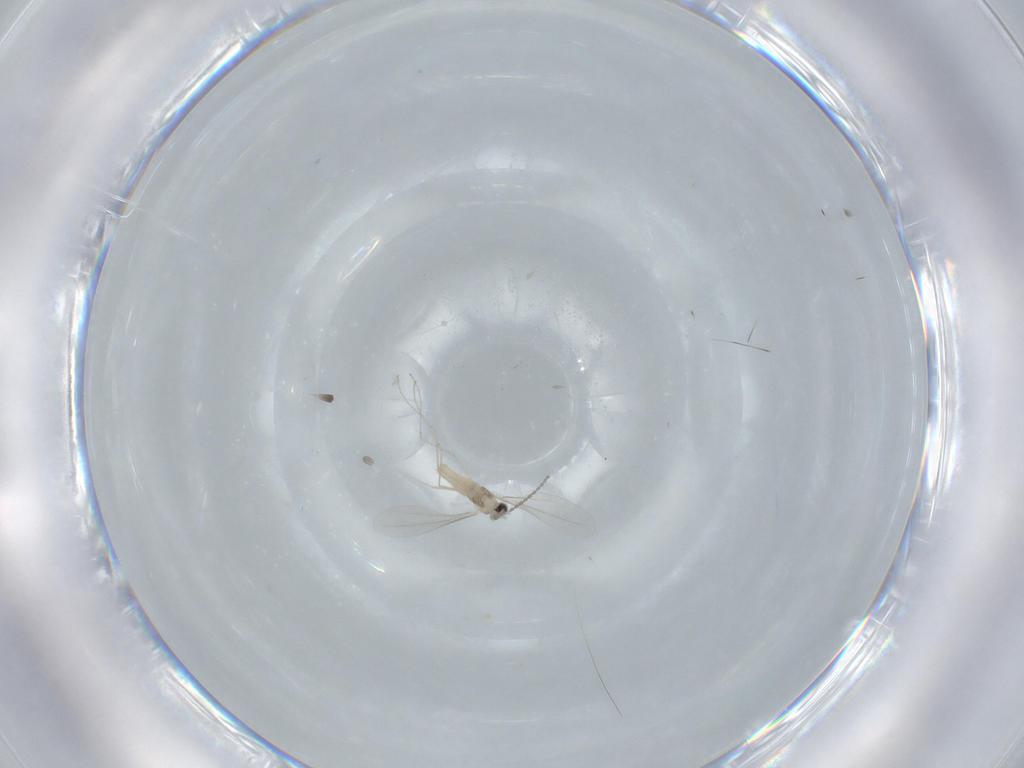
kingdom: Animalia
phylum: Arthropoda
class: Insecta
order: Diptera
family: Cecidomyiidae
